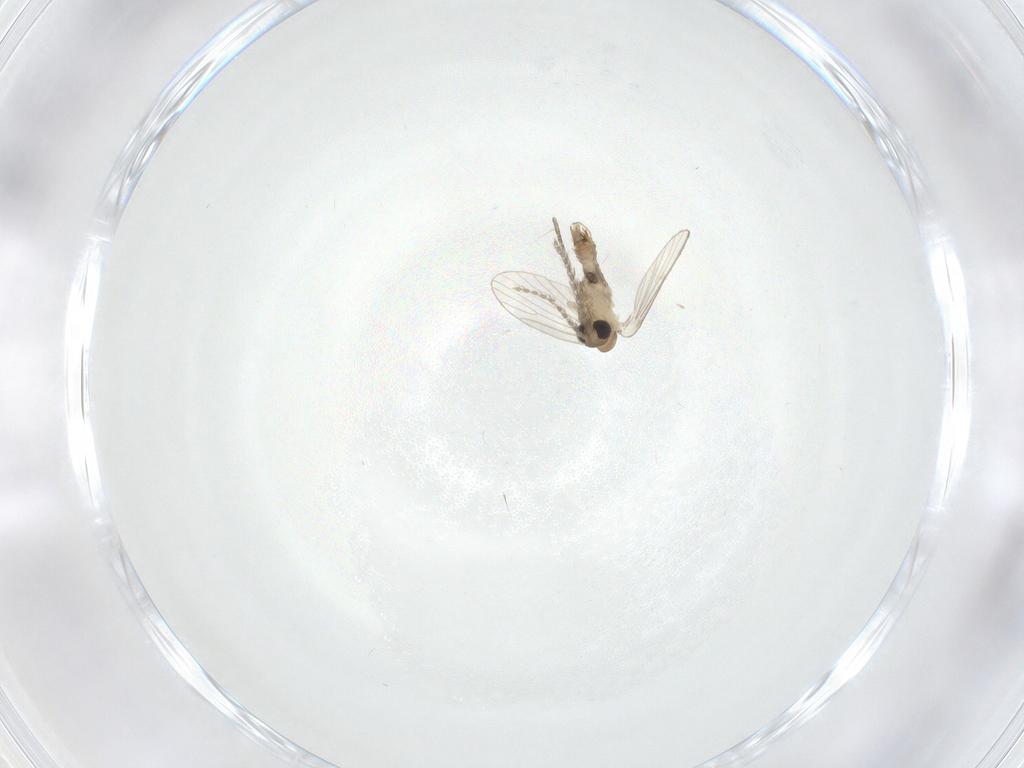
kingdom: Animalia
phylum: Arthropoda
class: Insecta
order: Diptera
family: Psychodidae
